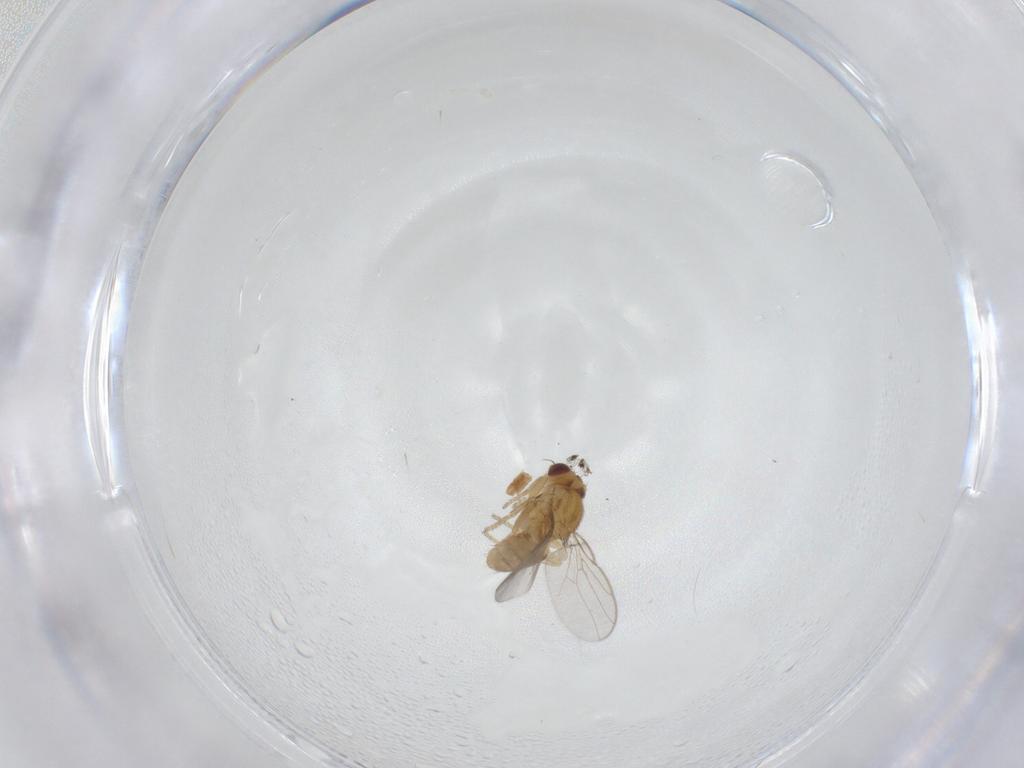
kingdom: Animalia
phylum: Arthropoda
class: Insecta
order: Diptera
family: Chloropidae
